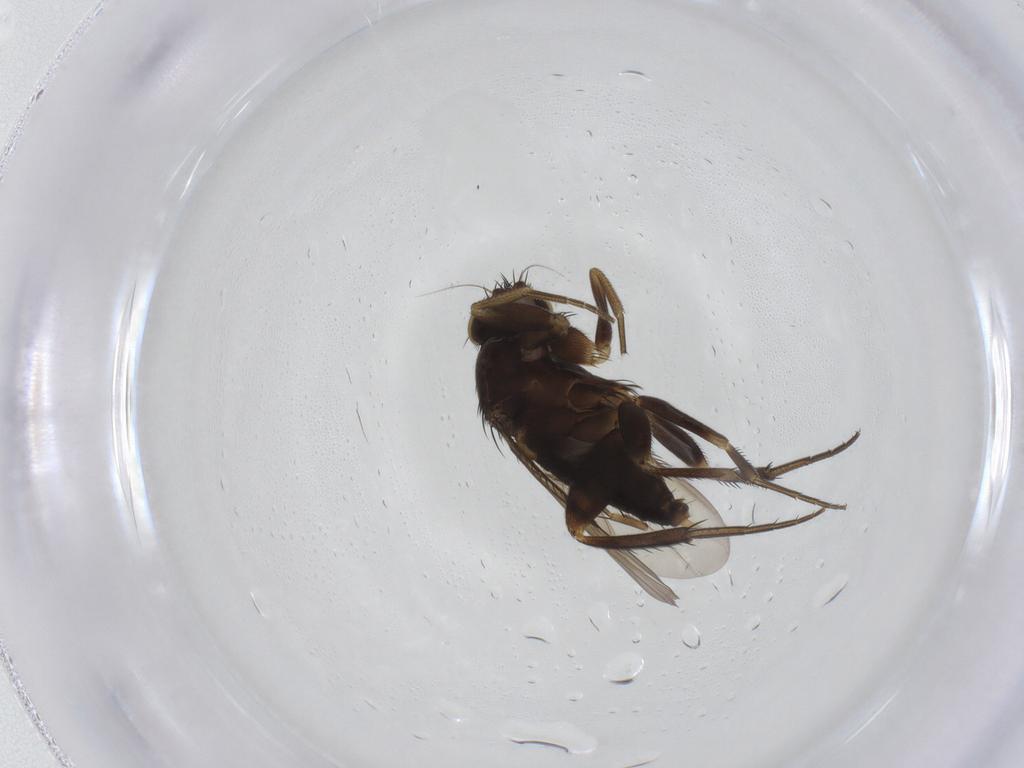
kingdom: Animalia
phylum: Arthropoda
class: Insecta
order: Diptera
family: Phoridae
